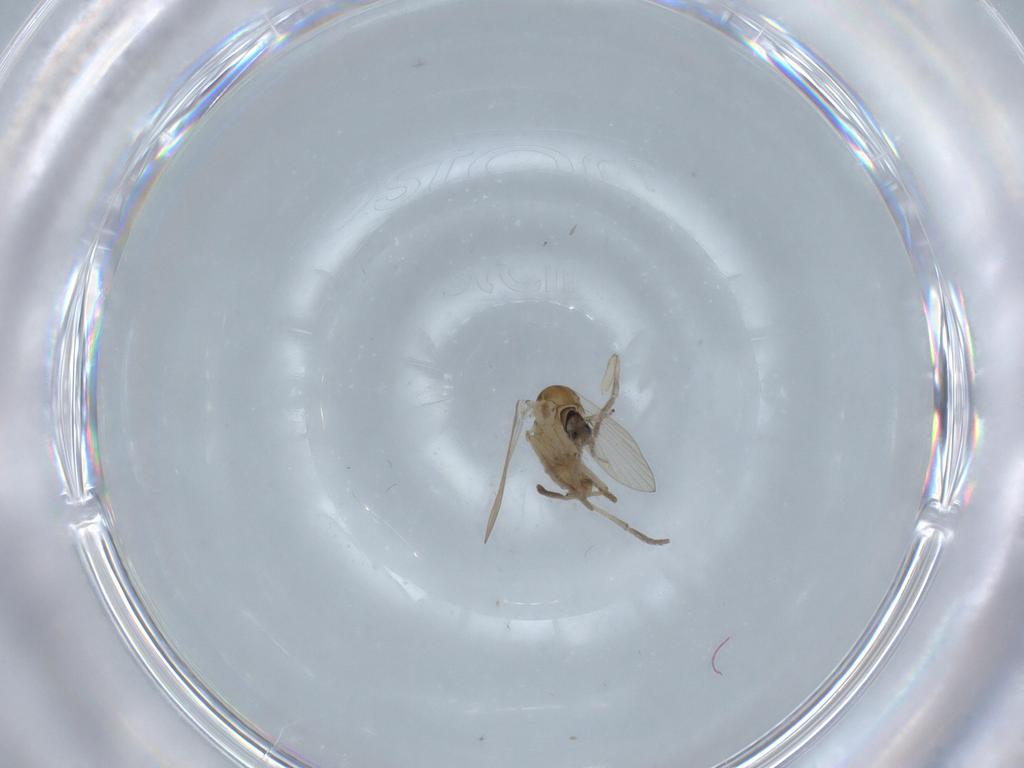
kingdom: Animalia
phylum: Arthropoda
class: Insecta
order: Diptera
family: Psychodidae
